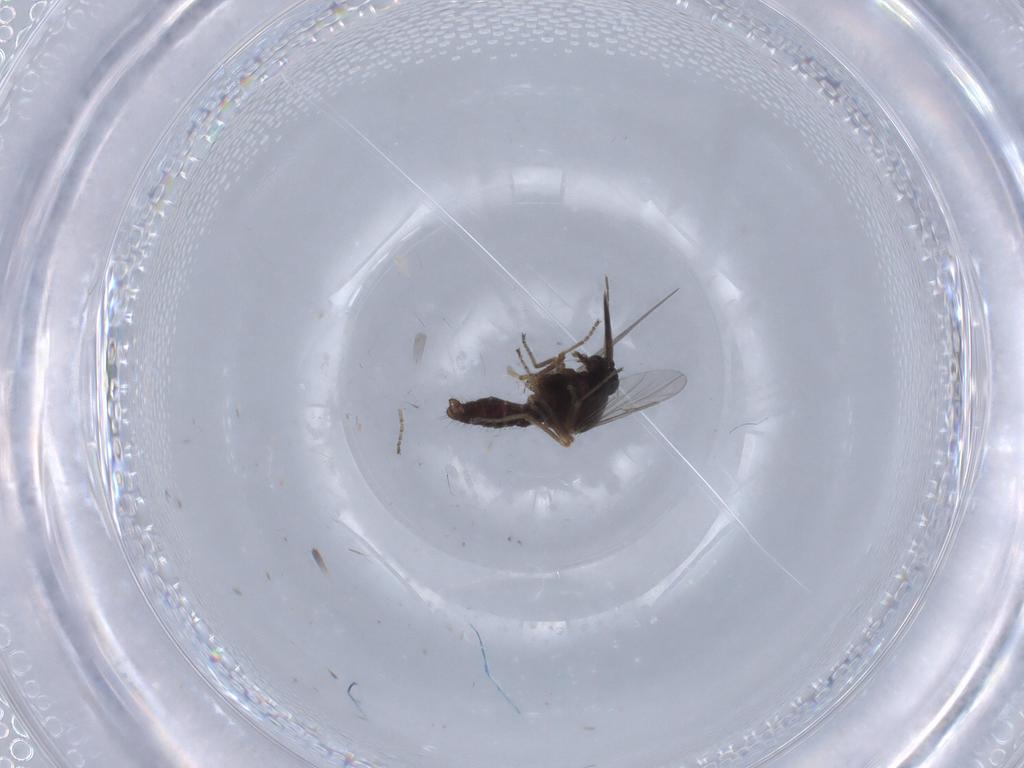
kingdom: Animalia
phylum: Arthropoda
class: Insecta
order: Diptera
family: Ceratopogonidae
